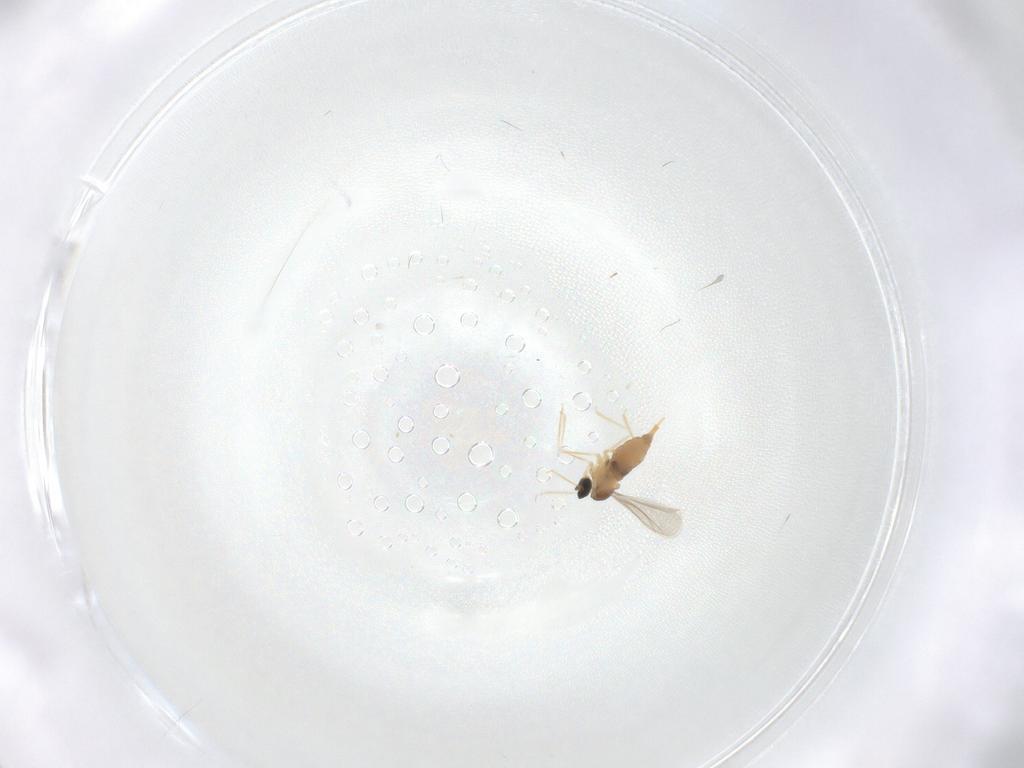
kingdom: Animalia
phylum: Arthropoda
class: Insecta
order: Diptera
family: Cecidomyiidae
